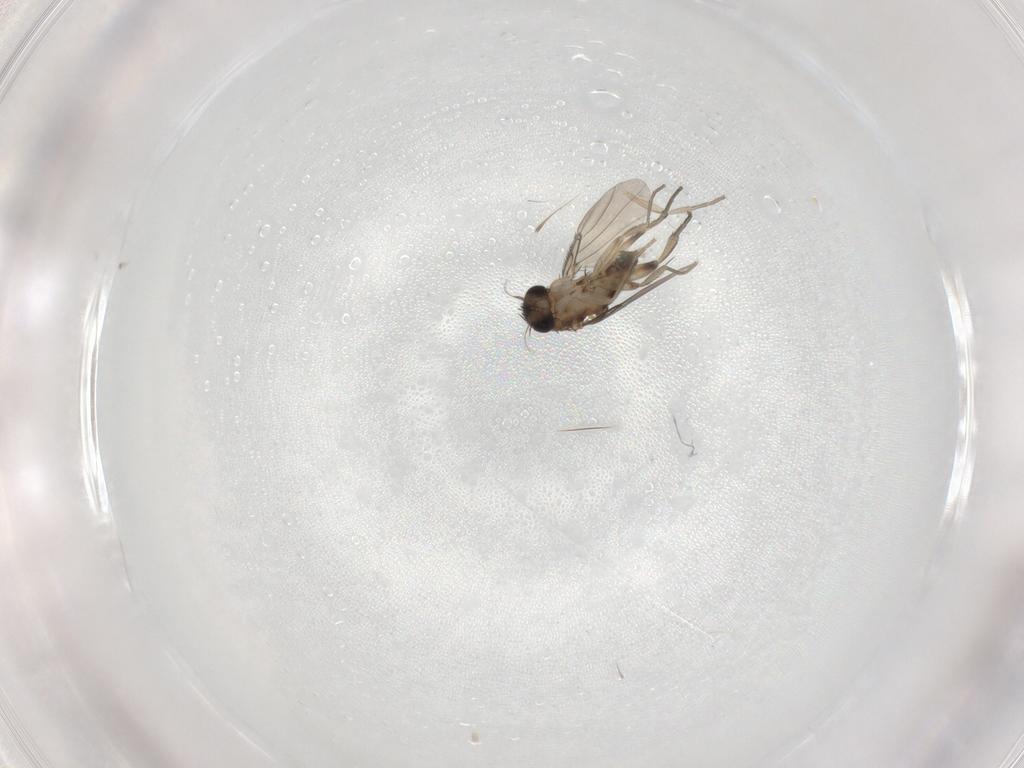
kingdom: Animalia
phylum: Arthropoda
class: Insecta
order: Diptera
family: Phoridae
